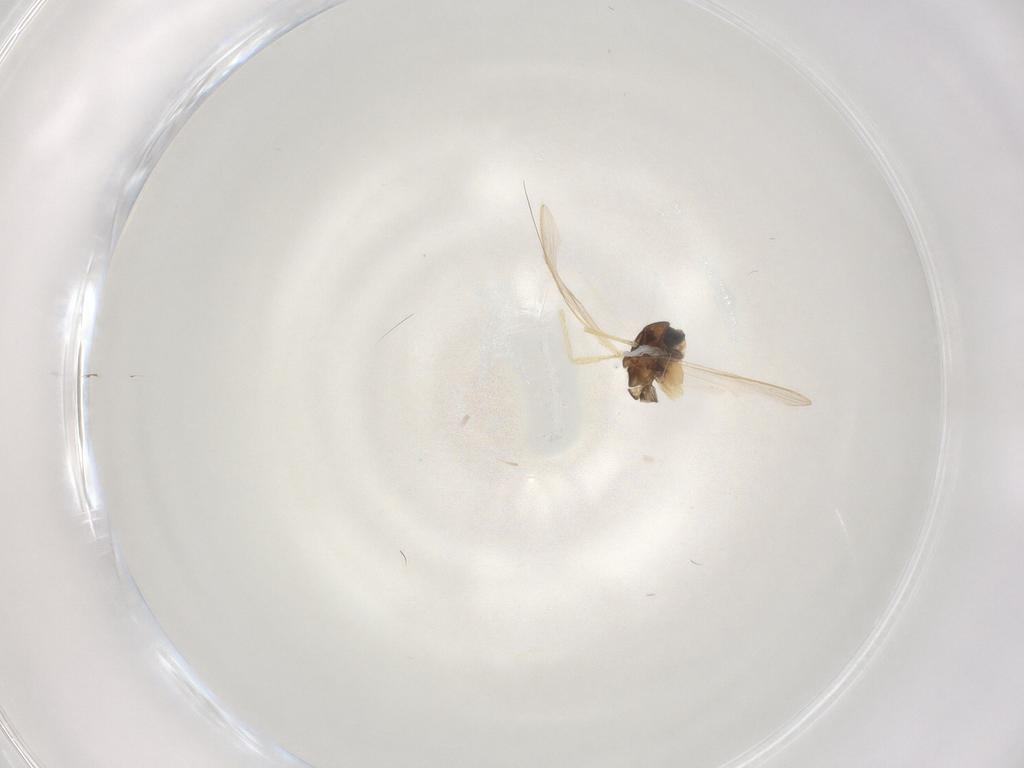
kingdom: Animalia
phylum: Arthropoda
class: Insecta
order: Diptera
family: Chironomidae
